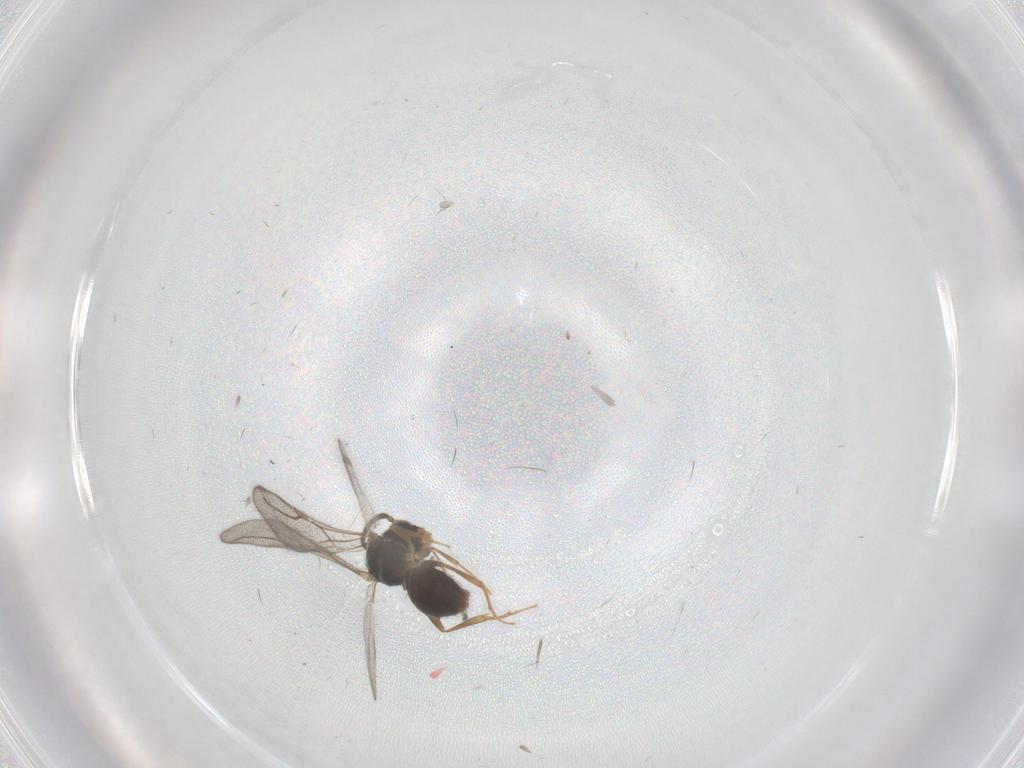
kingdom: Animalia
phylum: Arthropoda
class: Insecta
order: Hymenoptera
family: Bethylidae
